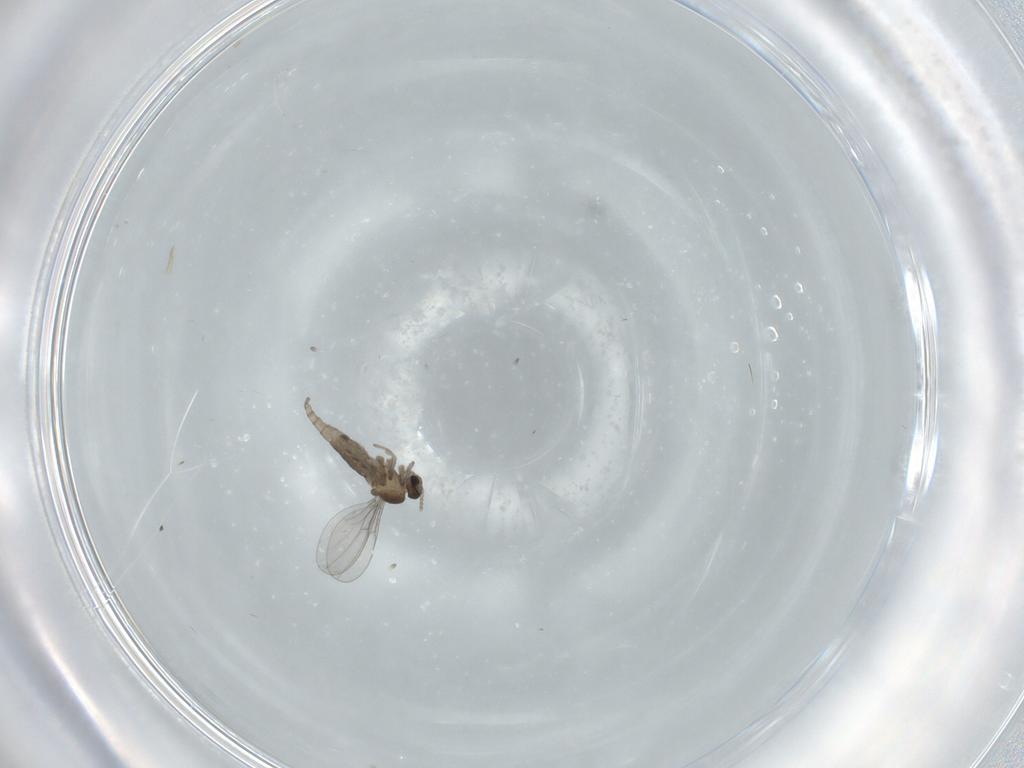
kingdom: Animalia
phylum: Arthropoda
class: Insecta
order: Diptera
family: Cecidomyiidae
